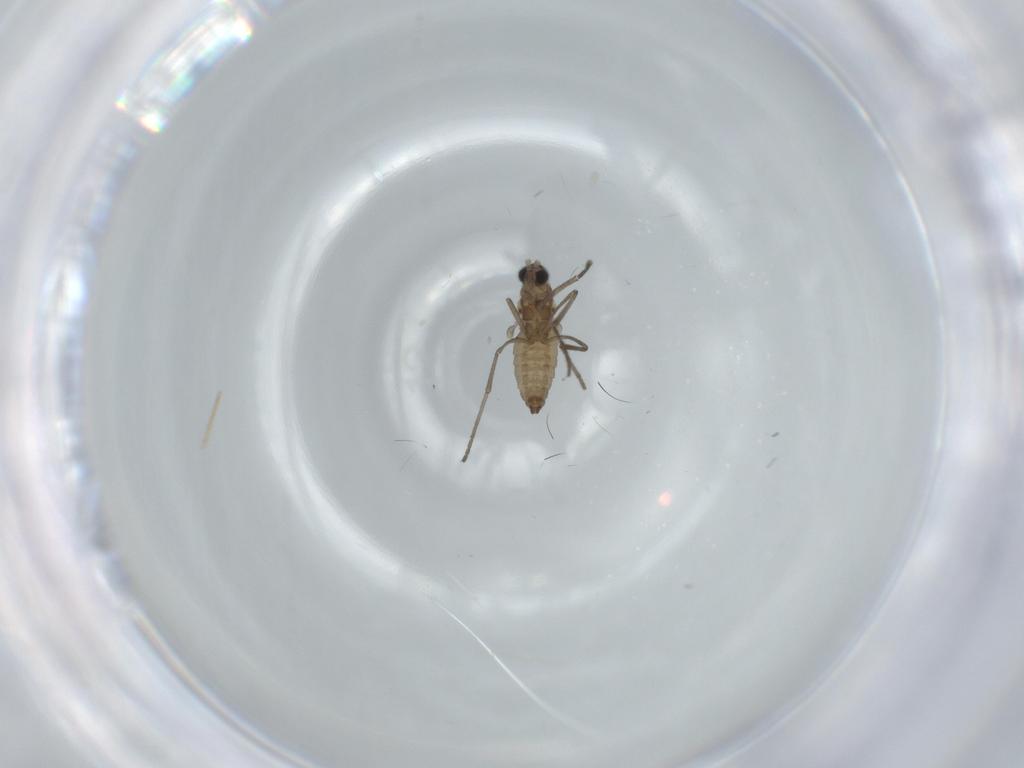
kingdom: Animalia
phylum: Arthropoda
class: Insecta
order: Diptera
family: Cecidomyiidae
